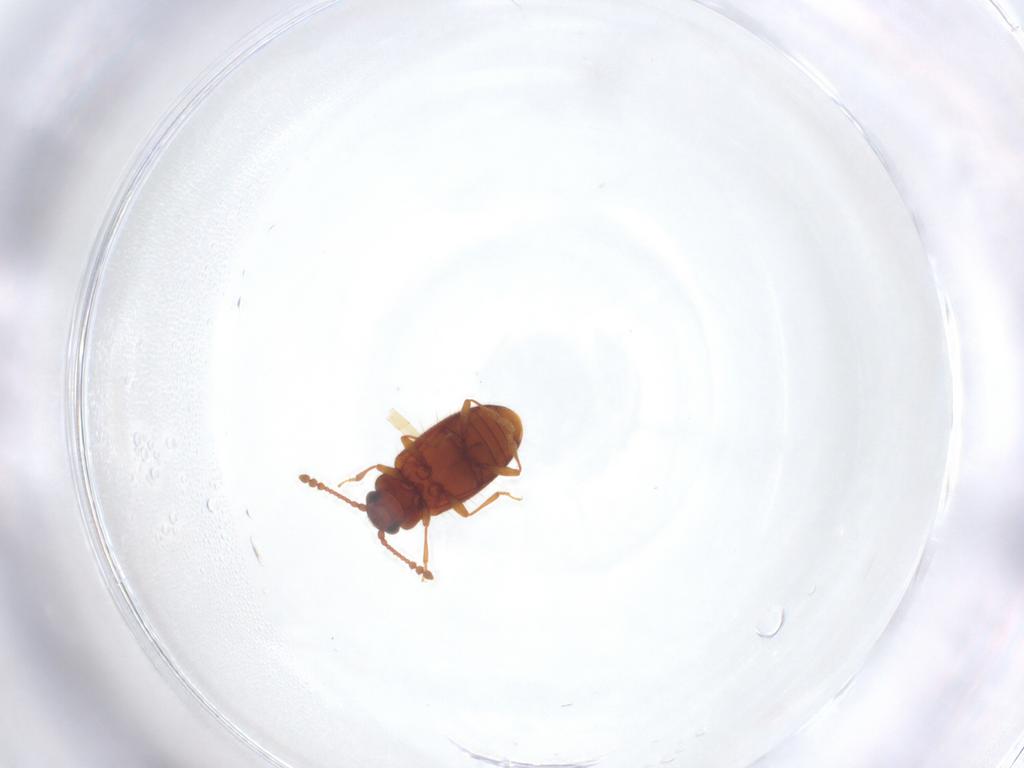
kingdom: Animalia
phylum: Arthropoda
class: Insecta
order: Coleoptera
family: Cryptophagidae
